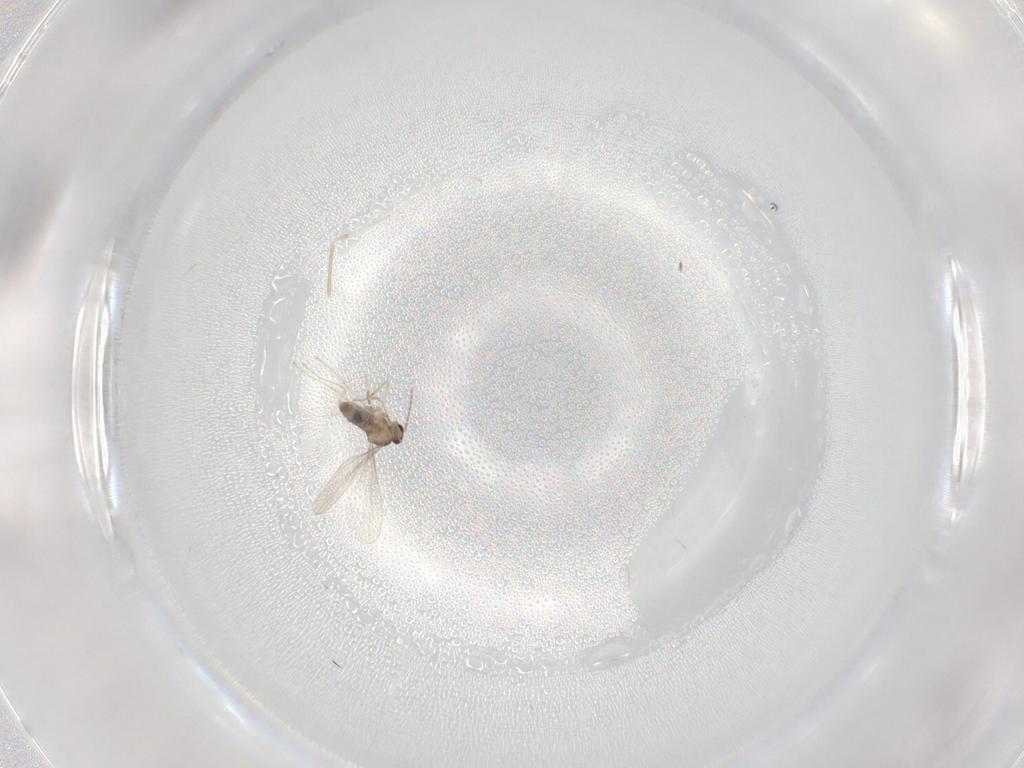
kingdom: Animalia
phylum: Arthropoda
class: Insecta
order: Diptera
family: Cecidomyiidae
